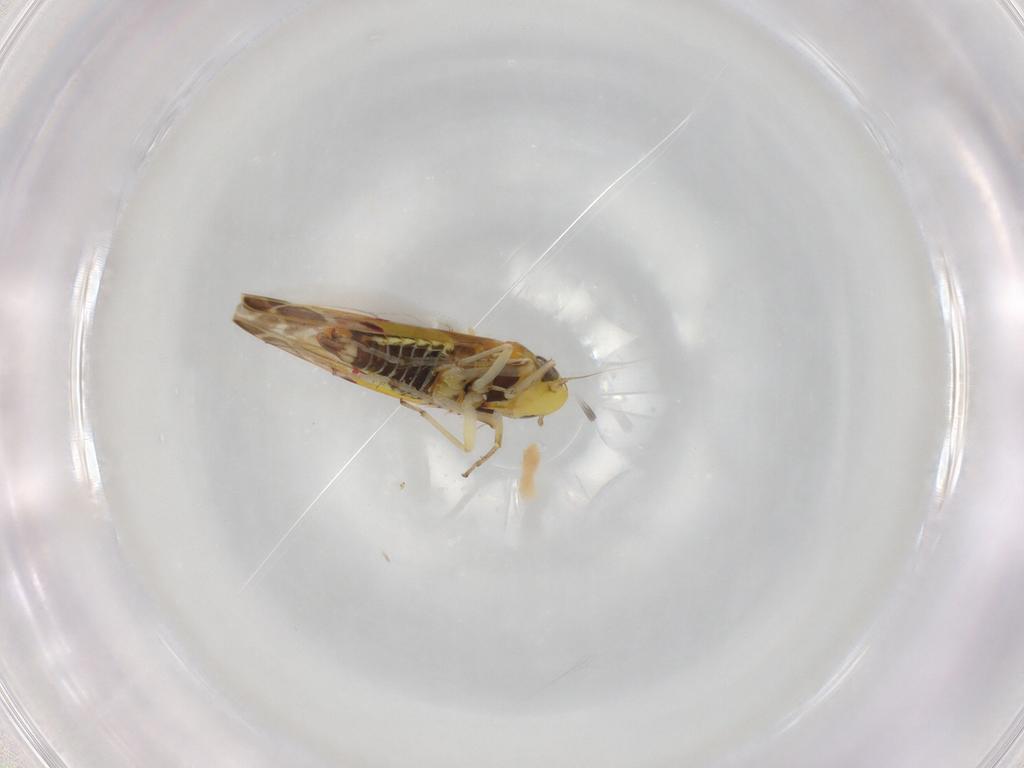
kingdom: Animalia
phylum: Arthropoda
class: Insecta
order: Hemiptera
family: Cicadellidae
